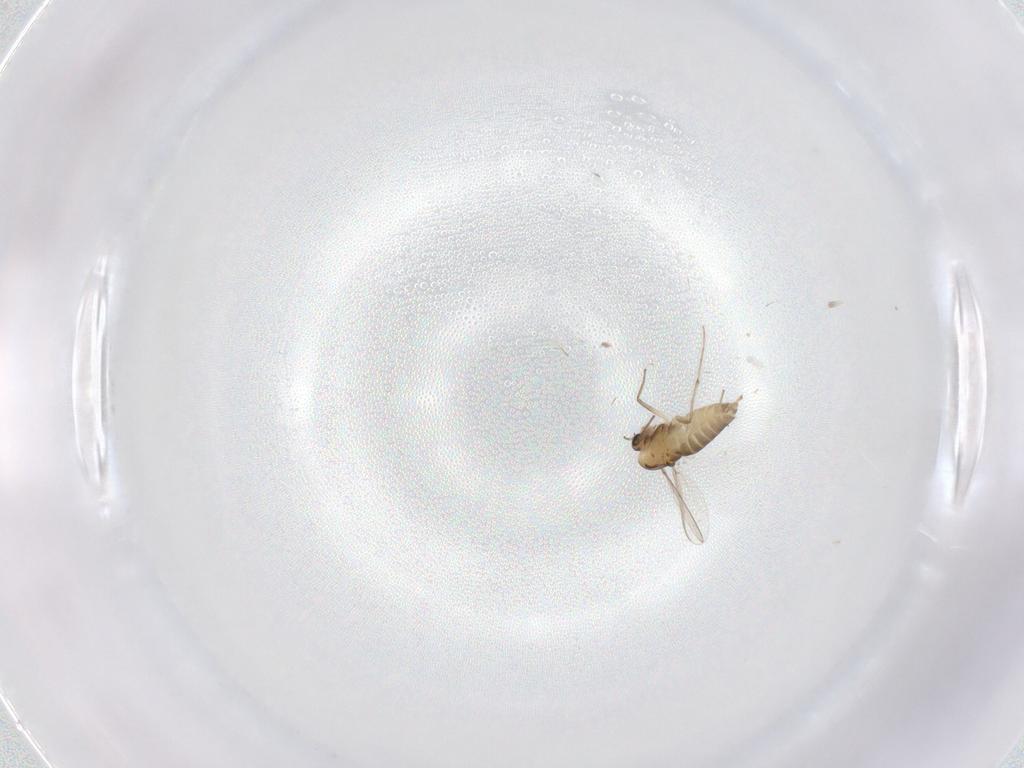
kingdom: Animalia
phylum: Arthropoda
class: Insecta
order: Diptera
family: Chironomidae
